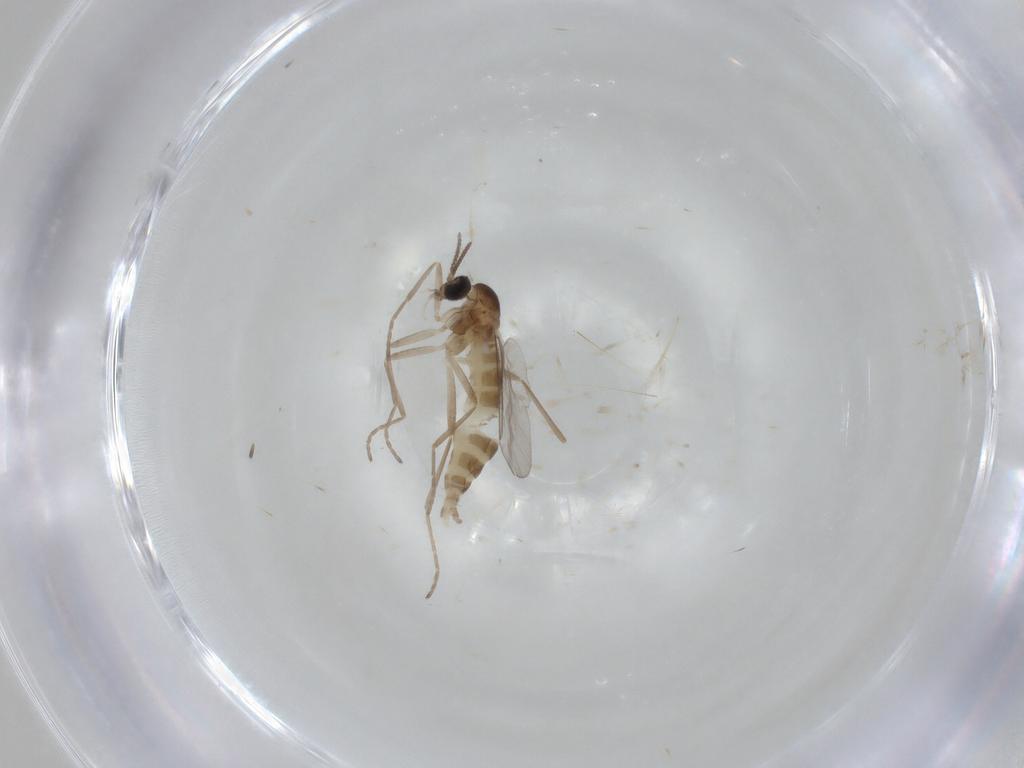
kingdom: Animalia
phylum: Arthropoda
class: Insecta
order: Diptera
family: Cecidomyiidae
